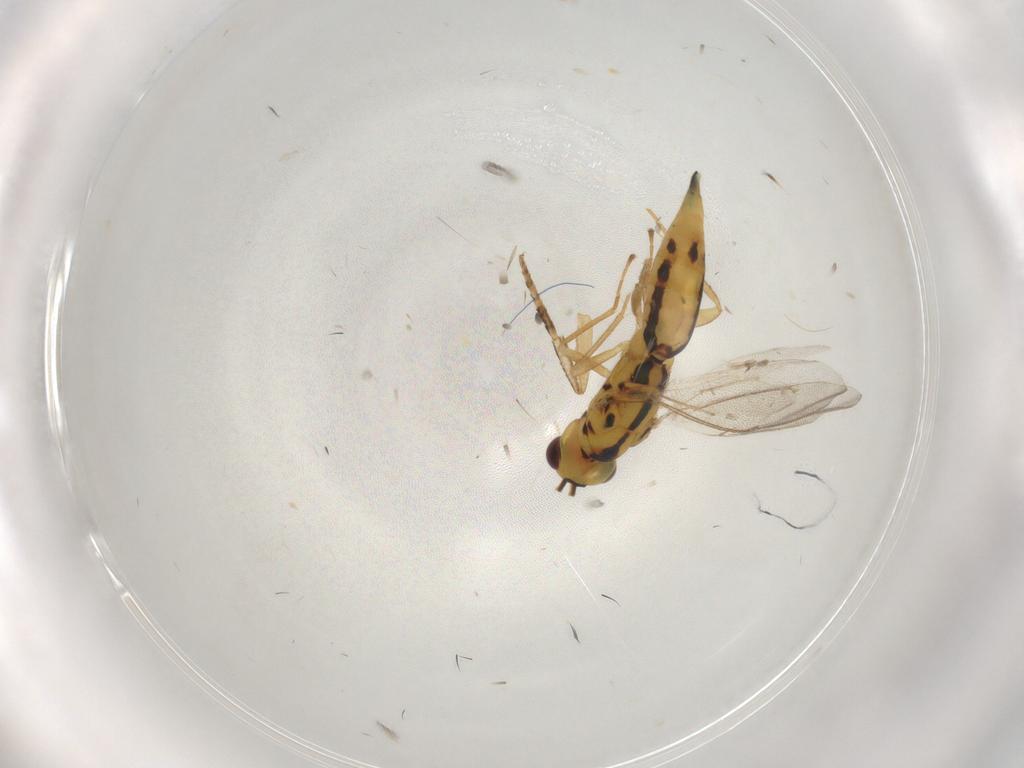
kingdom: Animalia
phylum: Arthropoda
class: Insecta
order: Hymenoptera
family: Eulophidae
